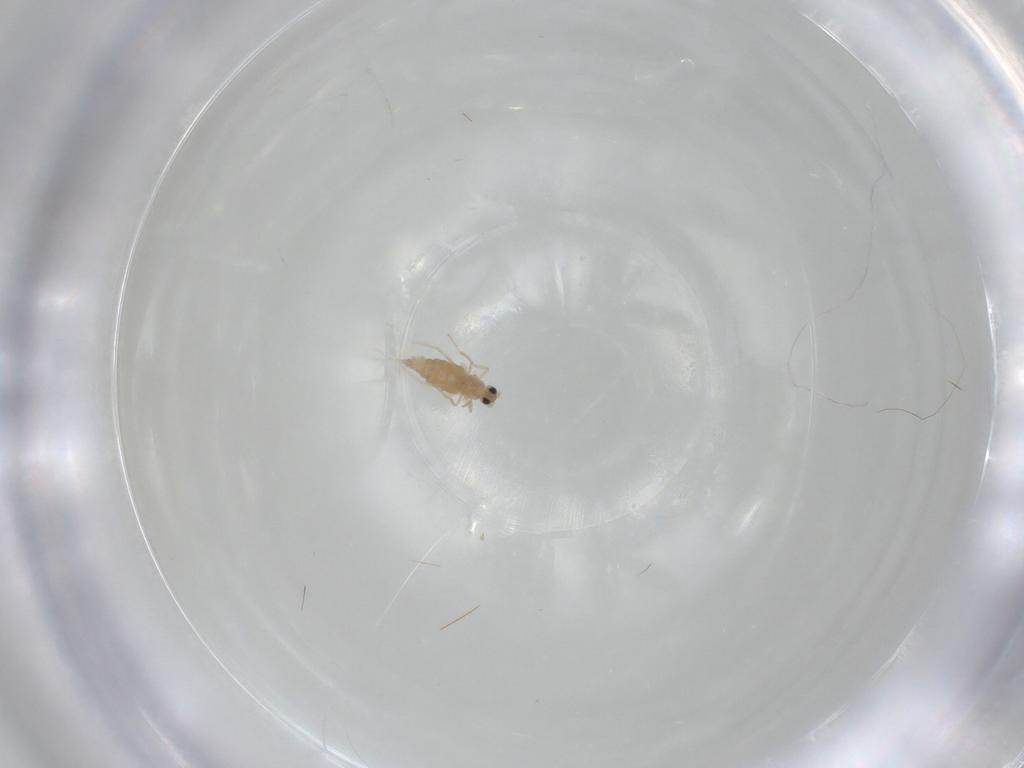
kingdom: Animalia
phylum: Arthropoda
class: Insecta
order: Diptera
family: Cecidomyiidae
